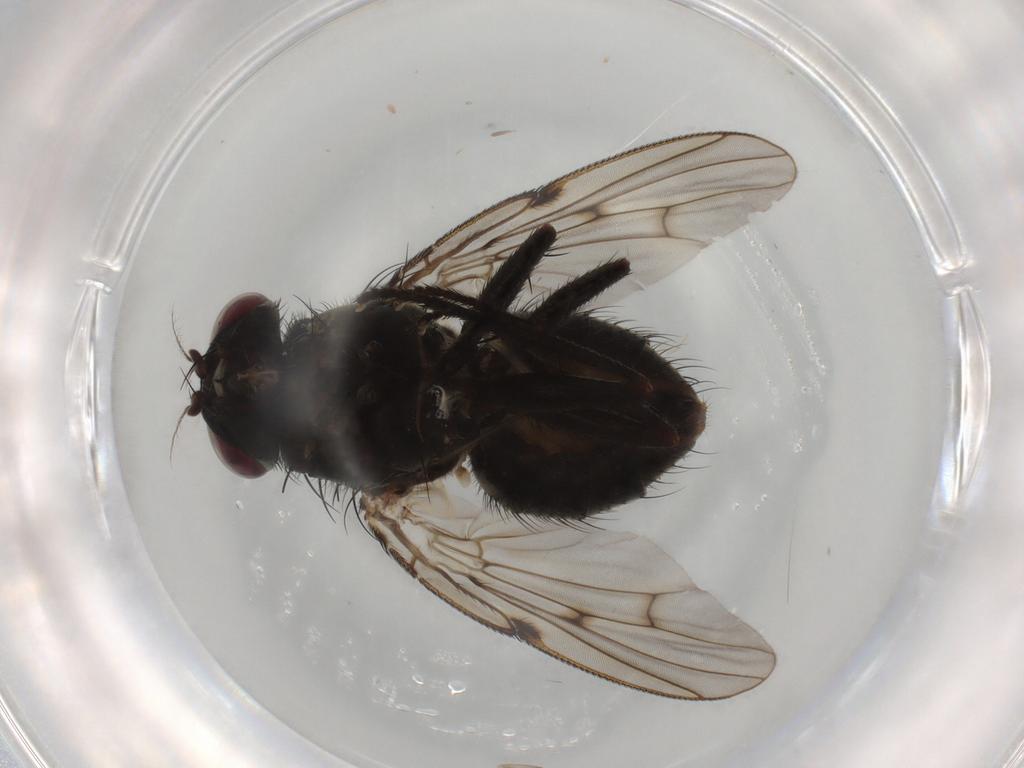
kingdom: Animalia
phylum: Arthropoda
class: Insecta
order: Diptera
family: Muscidae
